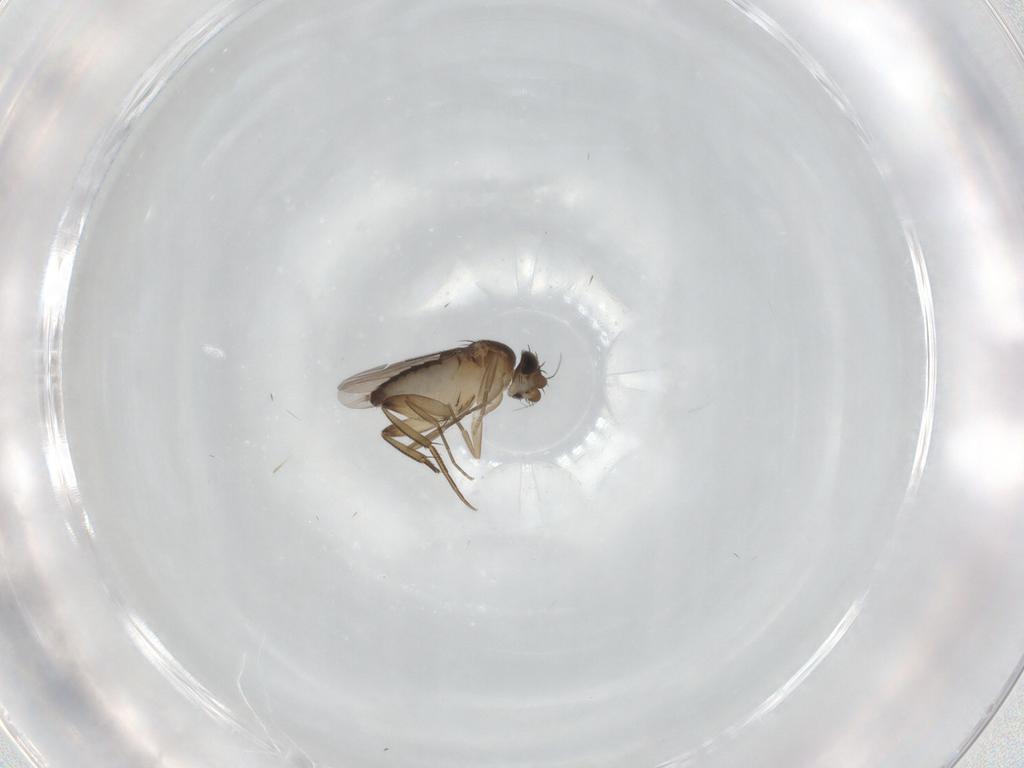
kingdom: Animalia
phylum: Arthropoda
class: Insecta
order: Diptera
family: Phoridae
